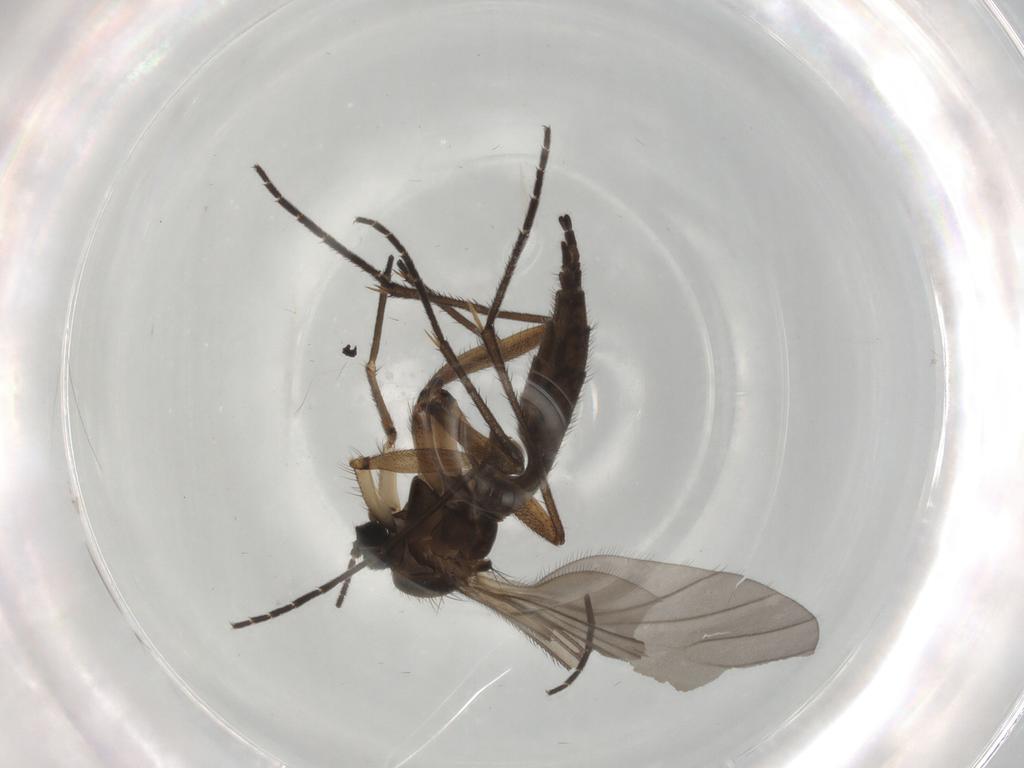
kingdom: Animalia
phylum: Arthropoda
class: Insecta
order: Diptera
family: Sciaridae
